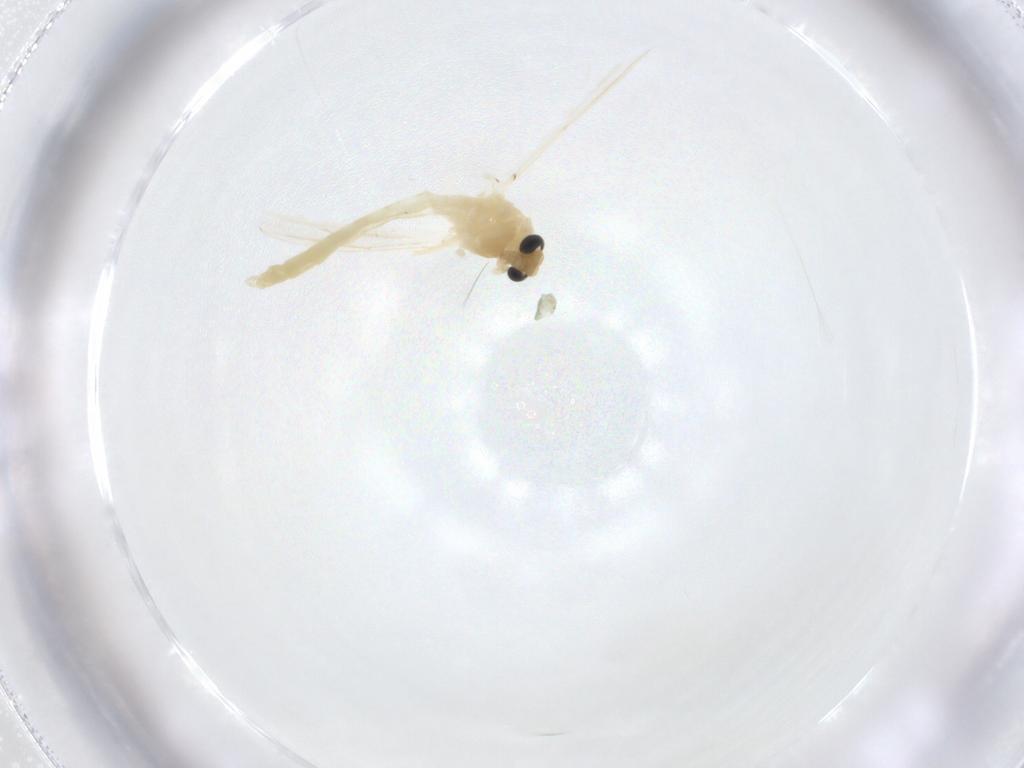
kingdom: Animalia
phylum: Arthropoda
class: Insecta
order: Diptera
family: Chironomidae
